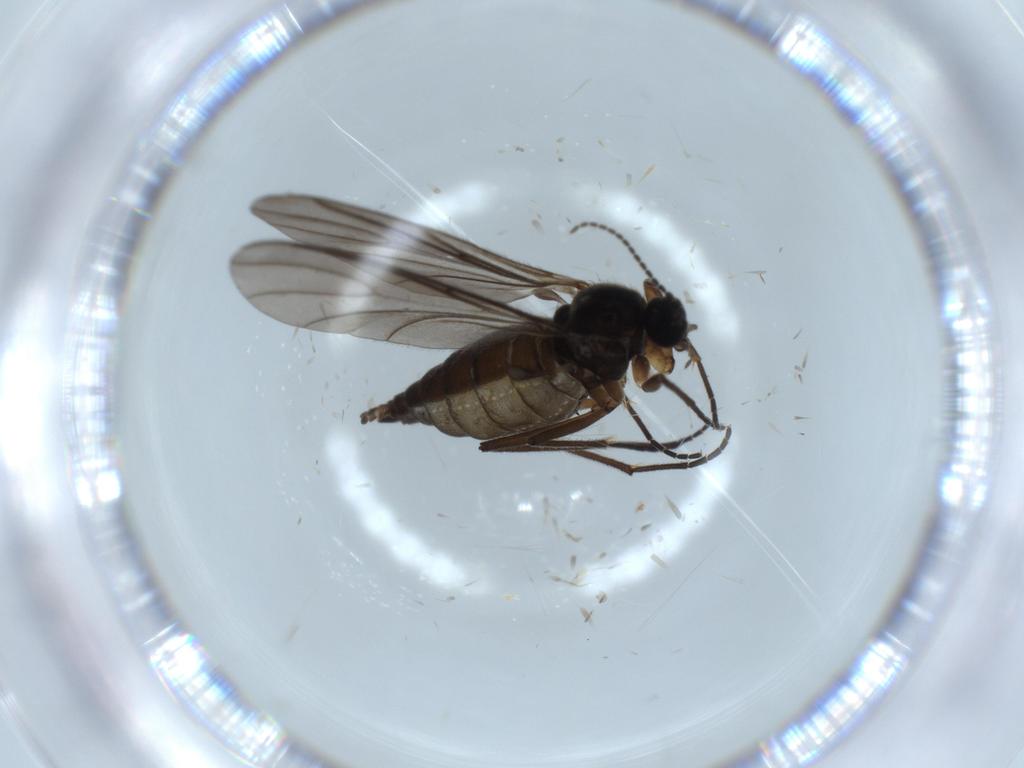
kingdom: Animalia
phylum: Arthropoda
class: Insecta
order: Diptera
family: Sciaridae
